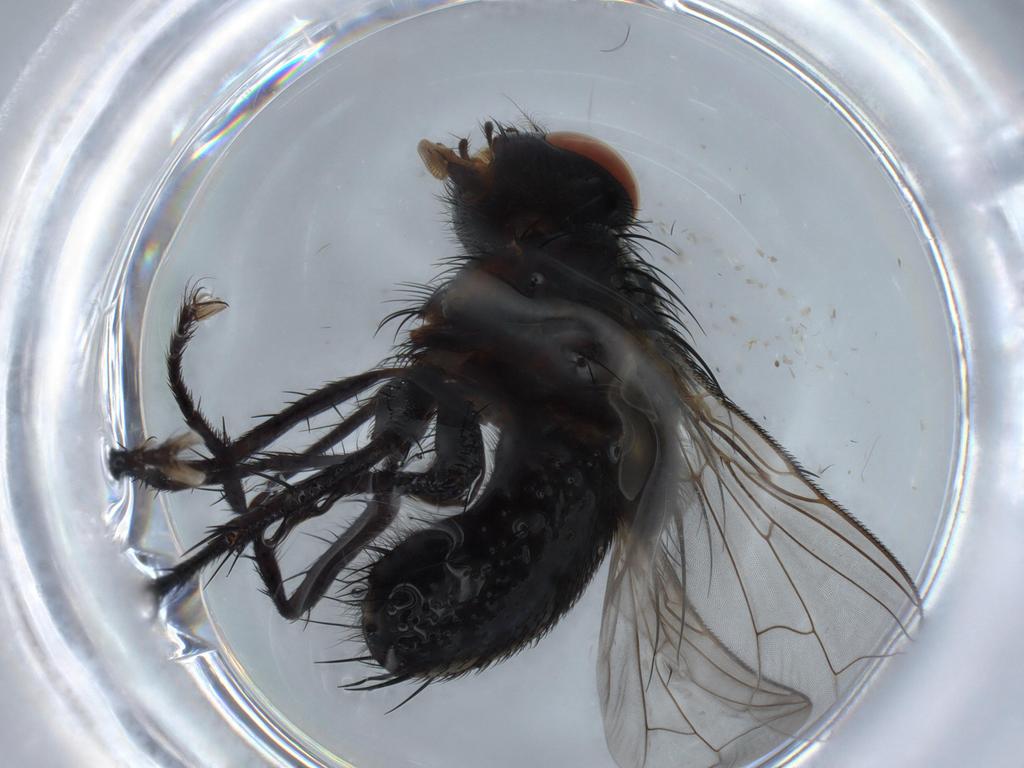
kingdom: Animalia
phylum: Arthropoda
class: Insecta
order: Diptera
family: Sarcophagidae
